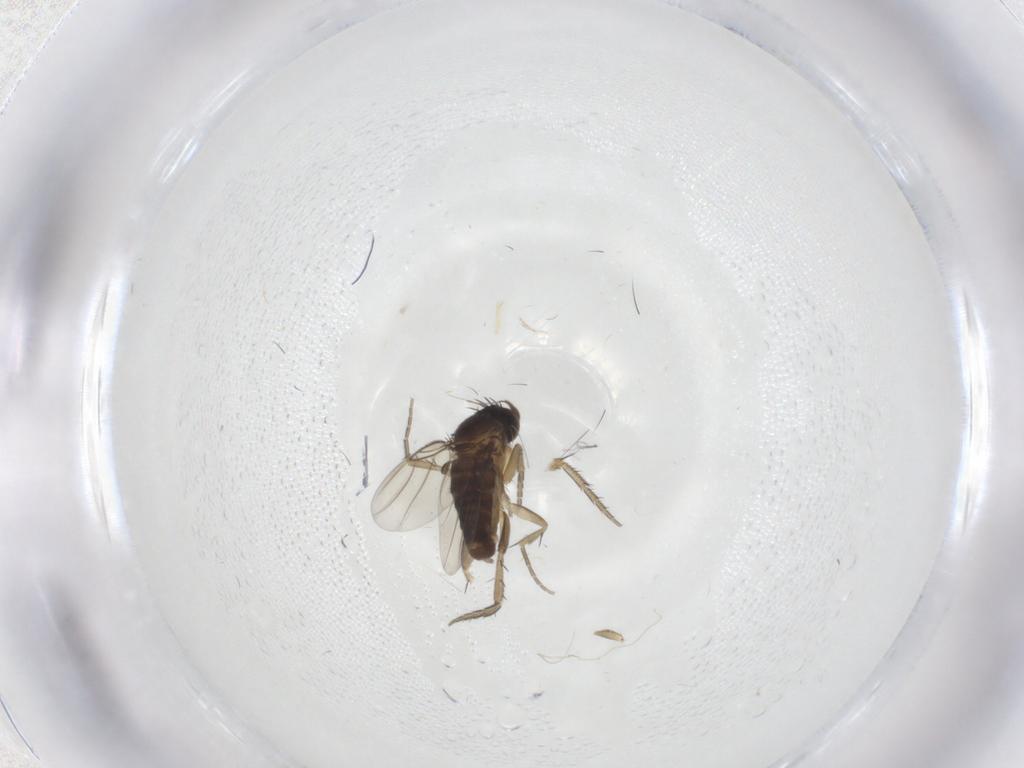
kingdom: Animalia
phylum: Arthropoda
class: Insecta
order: Diptera
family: Phoridae
